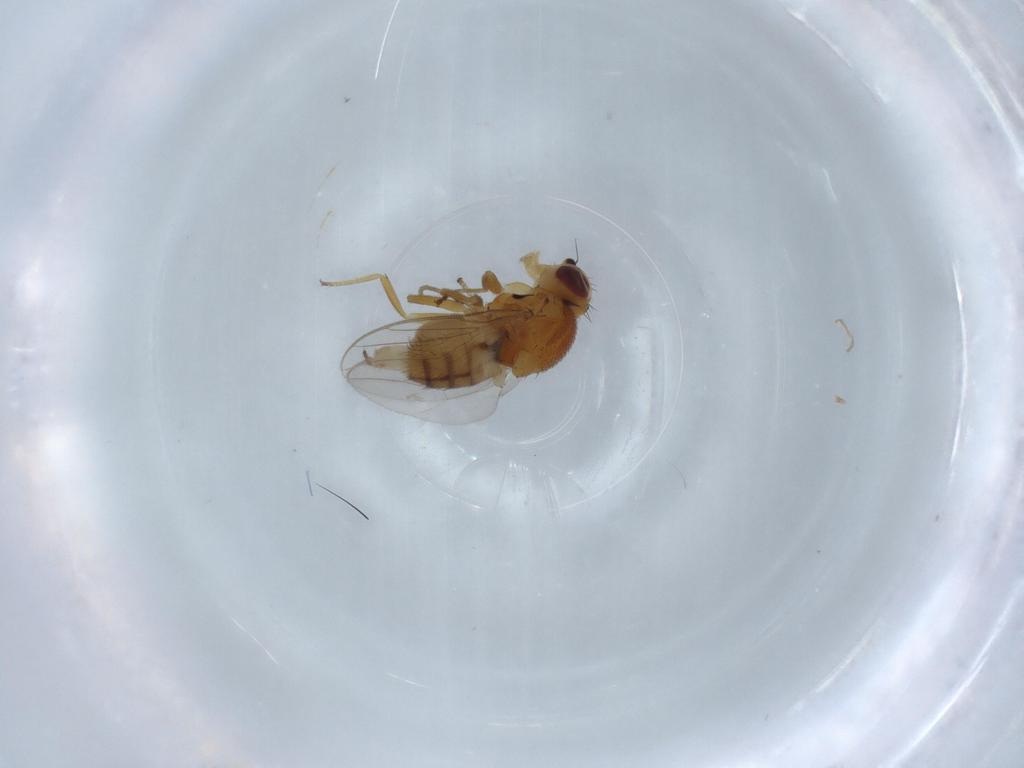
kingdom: Animalia
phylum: Arthropoda
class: Insecta
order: Diptera
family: Chloropidae
